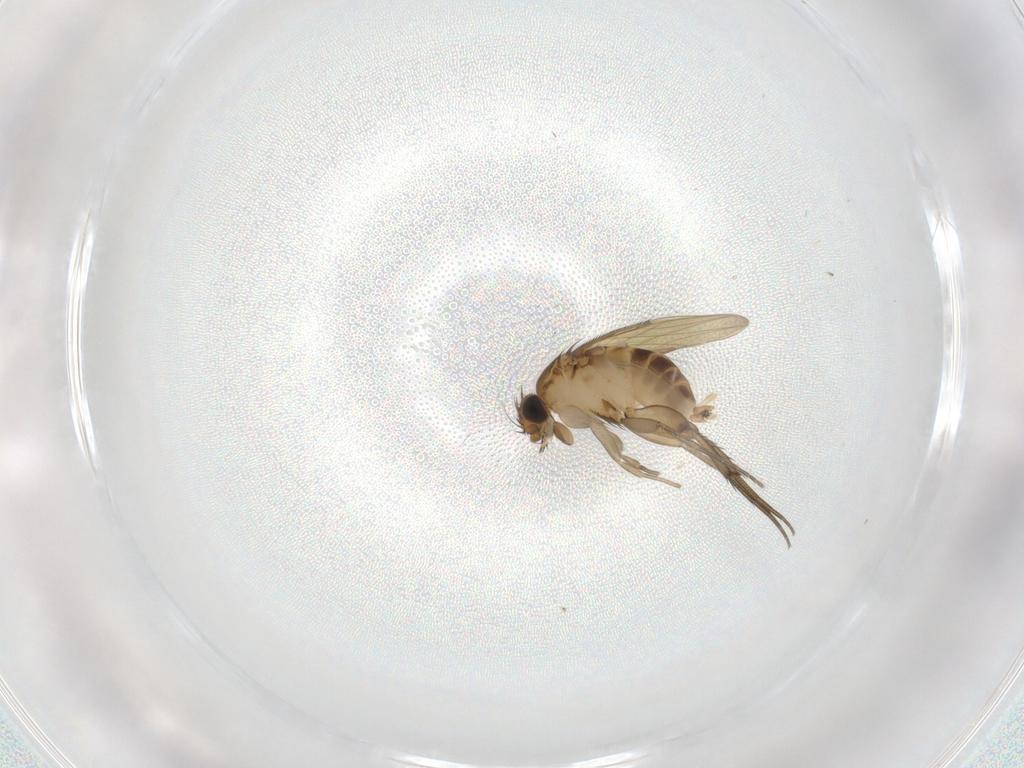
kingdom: Animalia
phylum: Arthropoda
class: Insecta
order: Diptera
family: Phoridae
